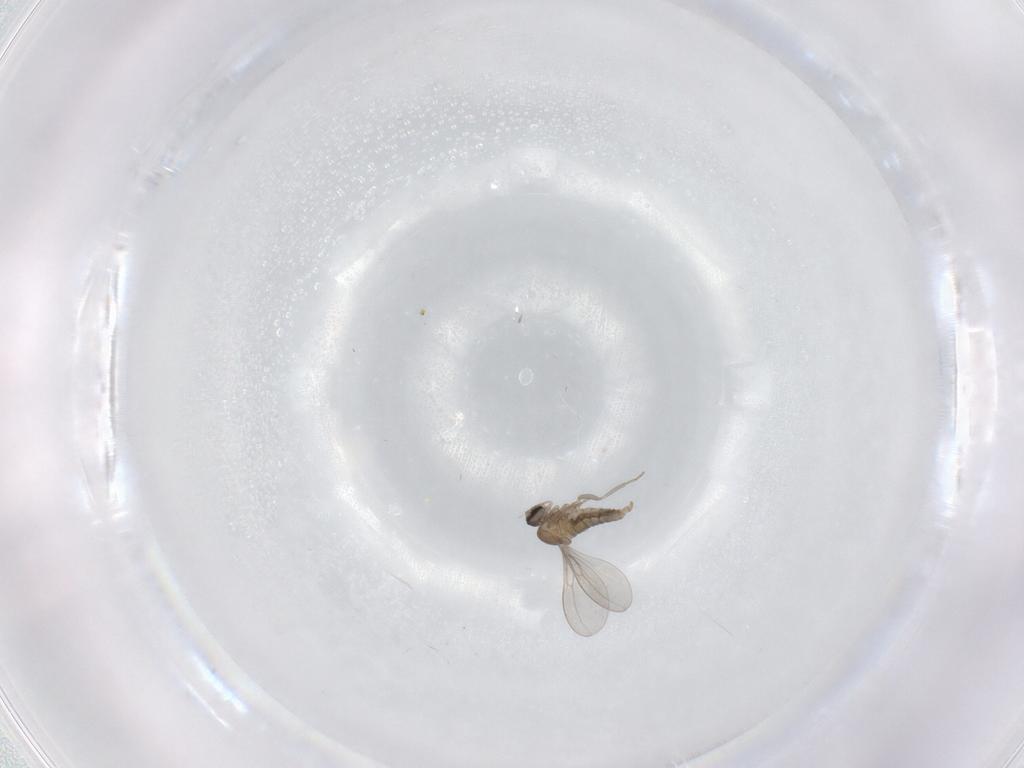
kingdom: Animalia
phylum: Arthropoda
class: Insecta
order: Diptera
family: Cecidomyiidae
